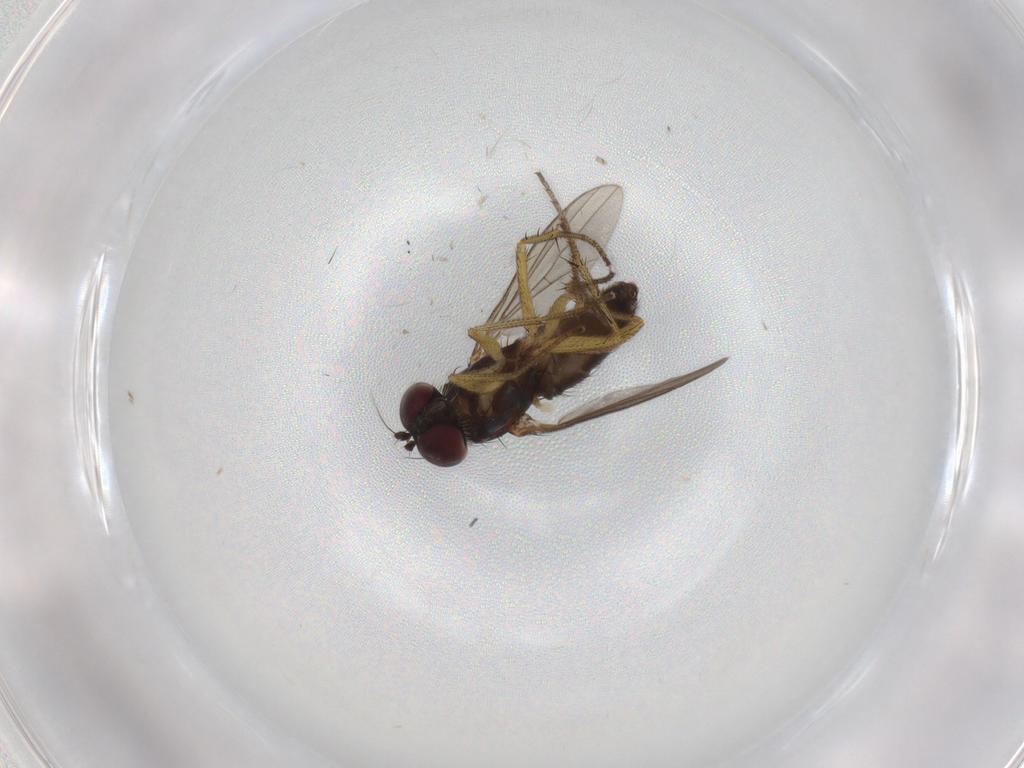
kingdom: Animalia
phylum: Arthropoda
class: Insecta
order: Diptera
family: Ceratopogonidae
